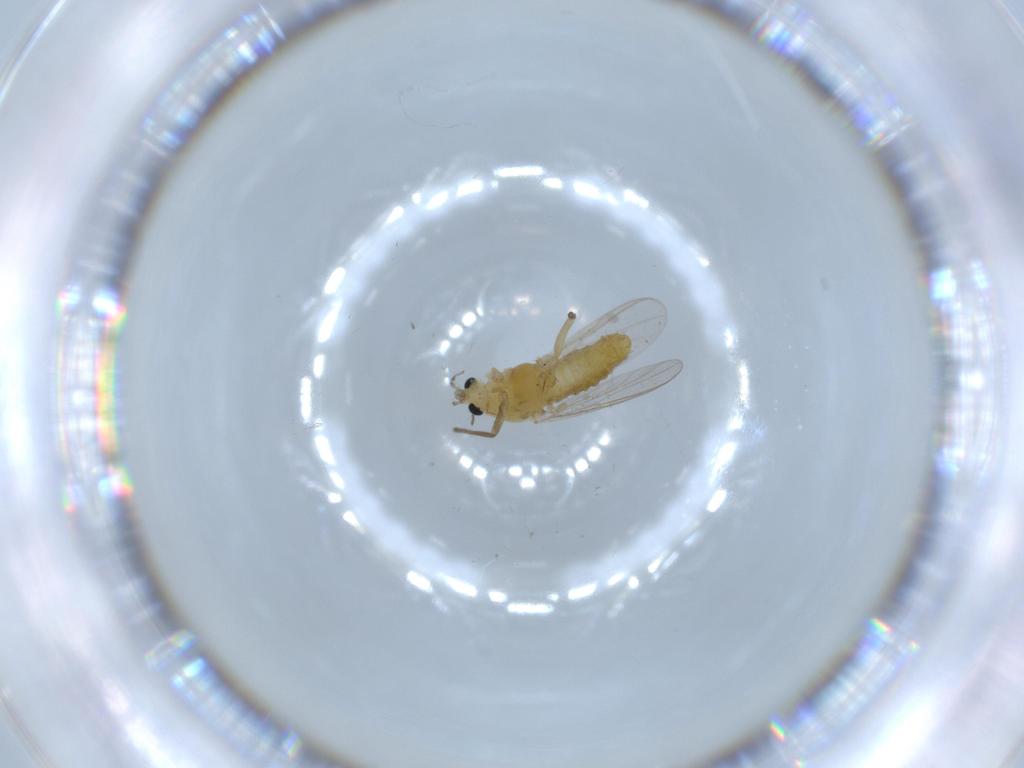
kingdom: Animalia
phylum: Arthropoda
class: Insecta
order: Diptera
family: Chironomidae
